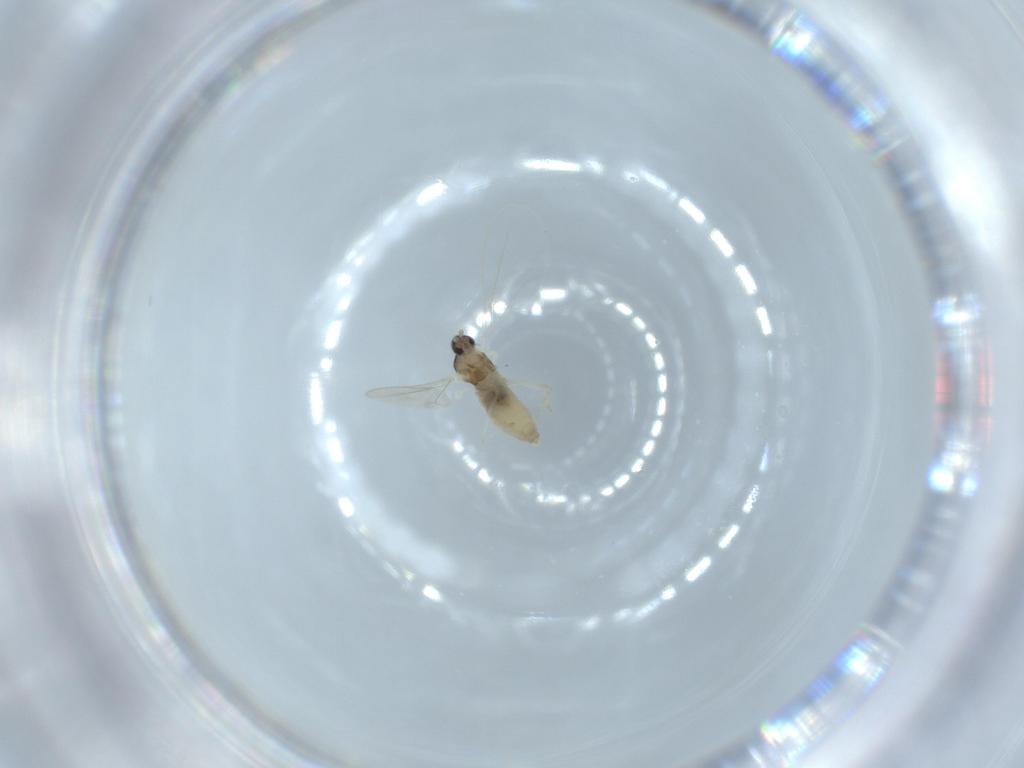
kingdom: Animalia
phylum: Arthropoda
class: Insecta
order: Diptera
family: Cecidomyiidae
